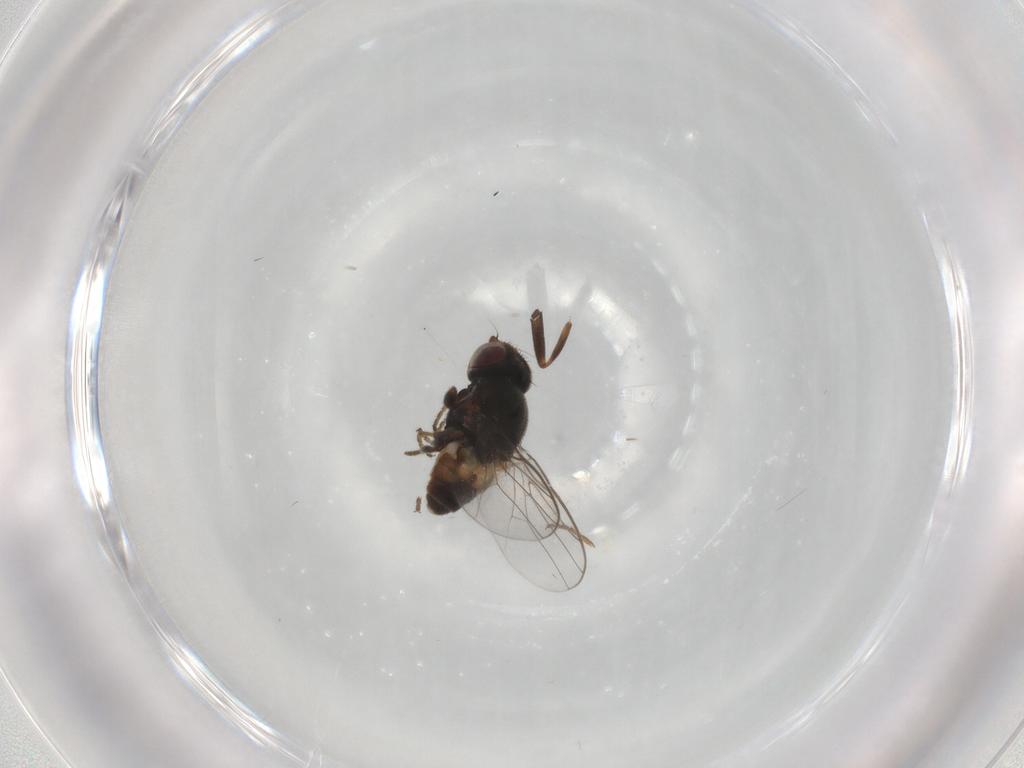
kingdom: Animalia
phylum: Arthropoda
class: Insecta
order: Diptera
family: Chloropidae
